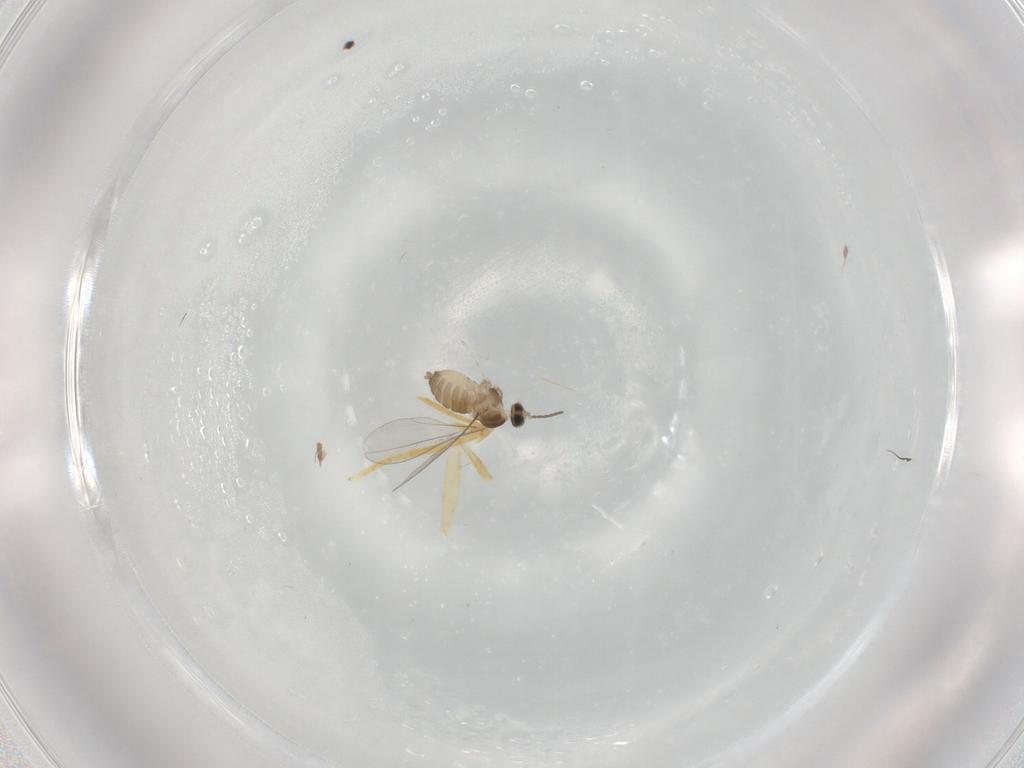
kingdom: Animalia
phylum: Arthropoda
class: Insecta
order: Diptera
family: Cecidomyiidae
